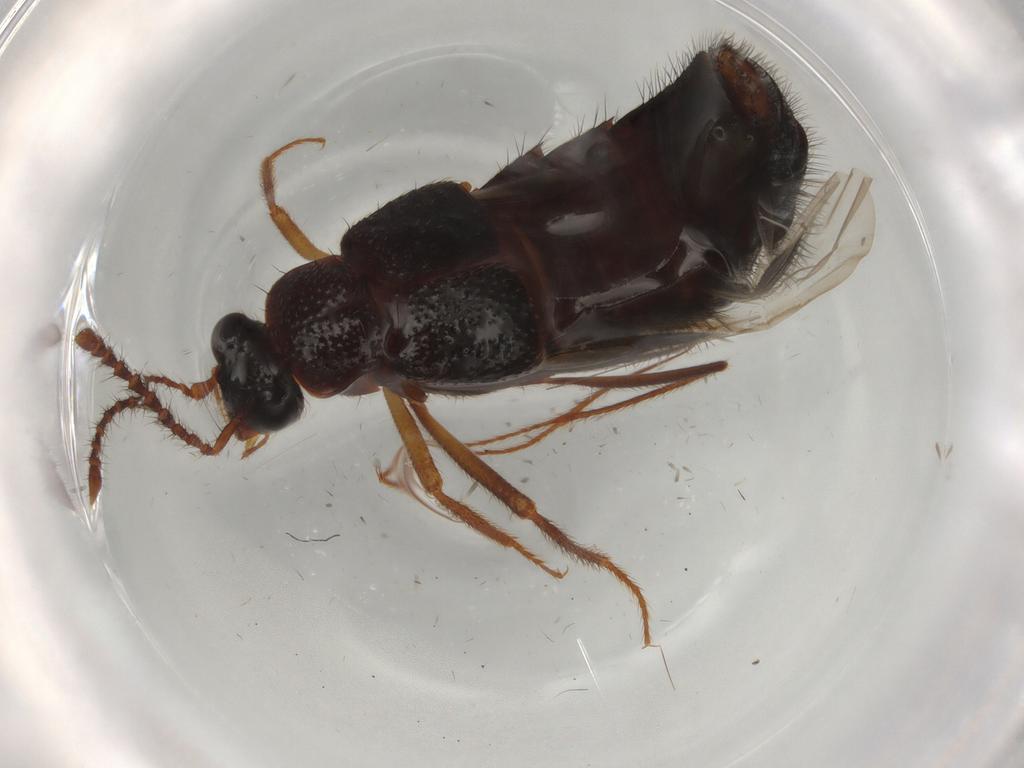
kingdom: Animalia
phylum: Arthropoda
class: Insecta
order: Coleoptera
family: Staphylinidae
